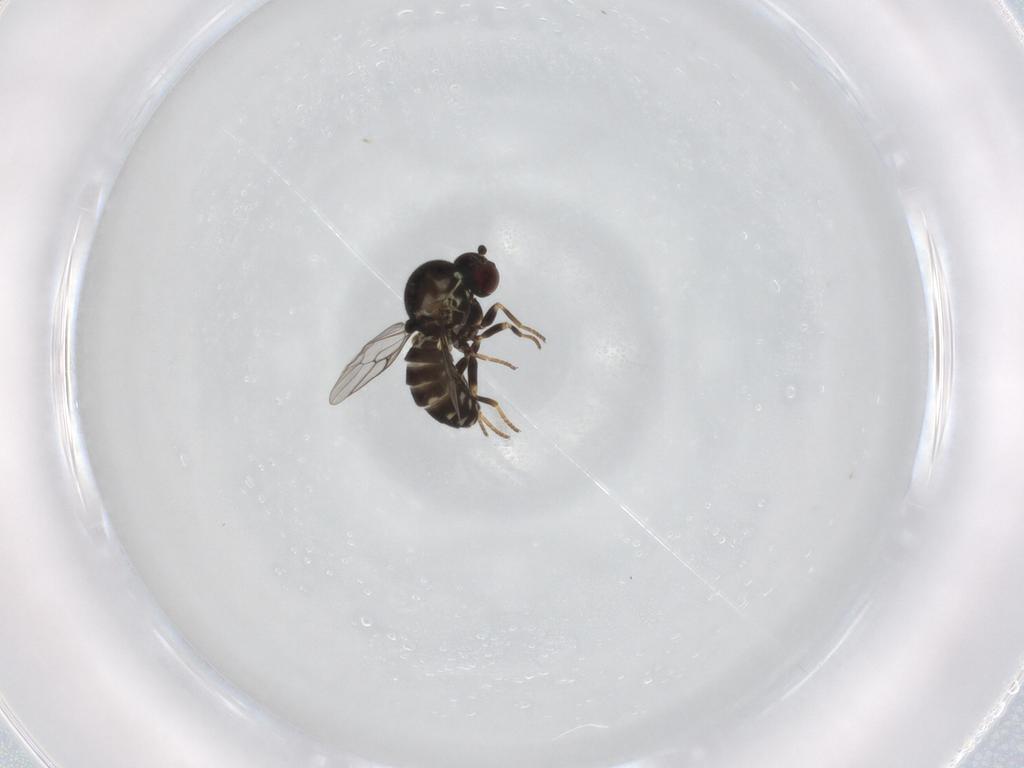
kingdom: Animalia
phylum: Arthropoda
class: Insecta
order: Diptera
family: Bombyliidae
